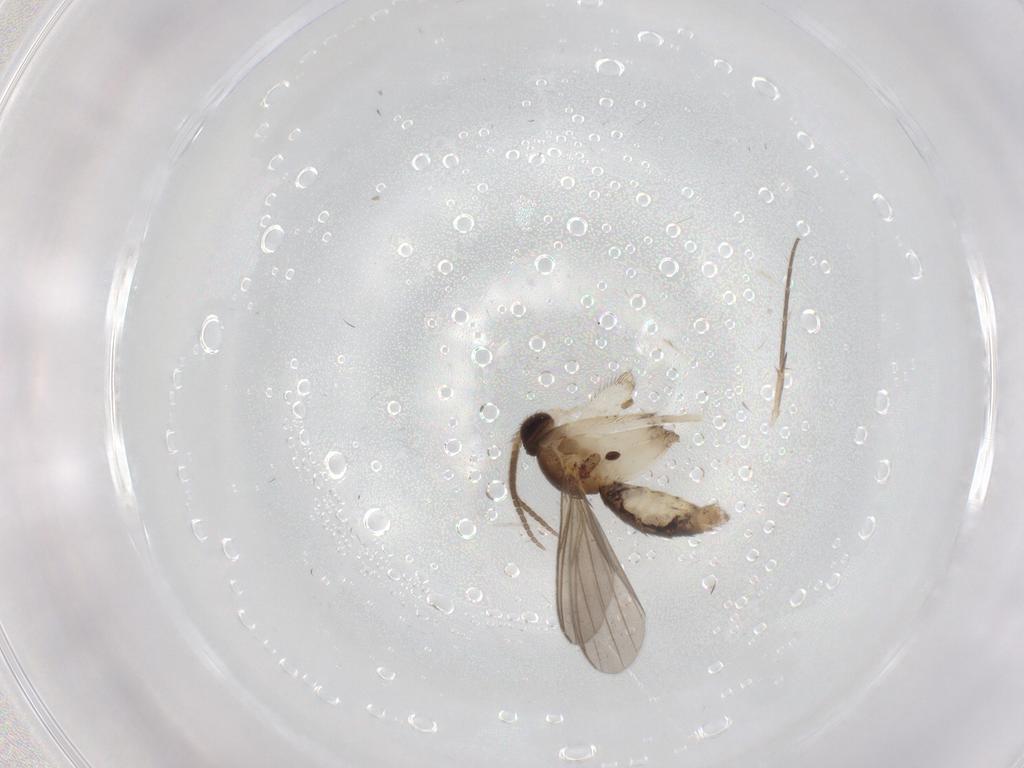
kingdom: Animalia
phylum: Arthropoda
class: Insecta
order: Diptera
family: Mycetophilidae
